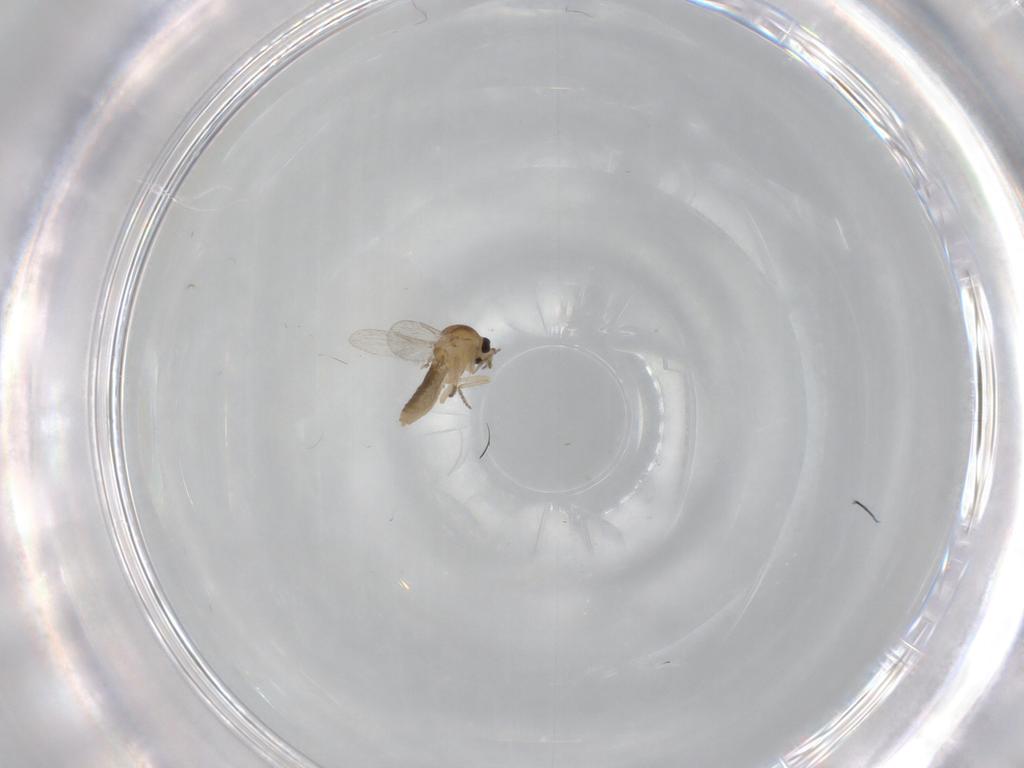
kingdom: Animalia
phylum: Arthropoda
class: Insecta
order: Diptera
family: Ceratopogonidae
